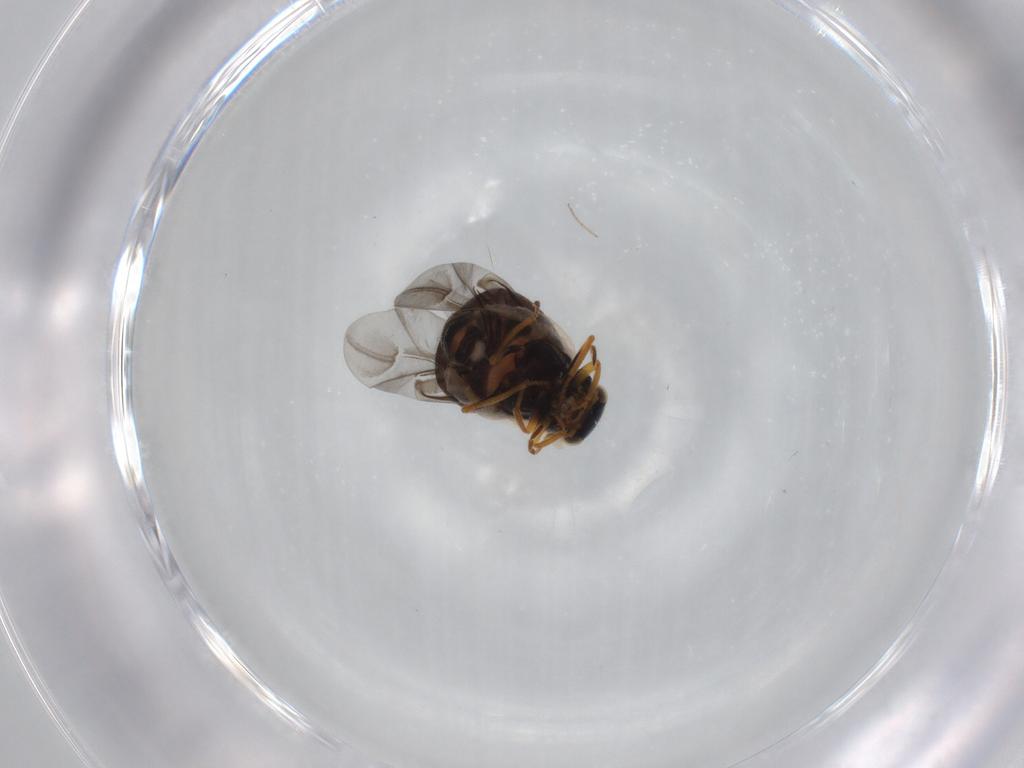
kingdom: Animalia
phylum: Arthropoda
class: Insecta
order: Coleoptera
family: Melyridae
